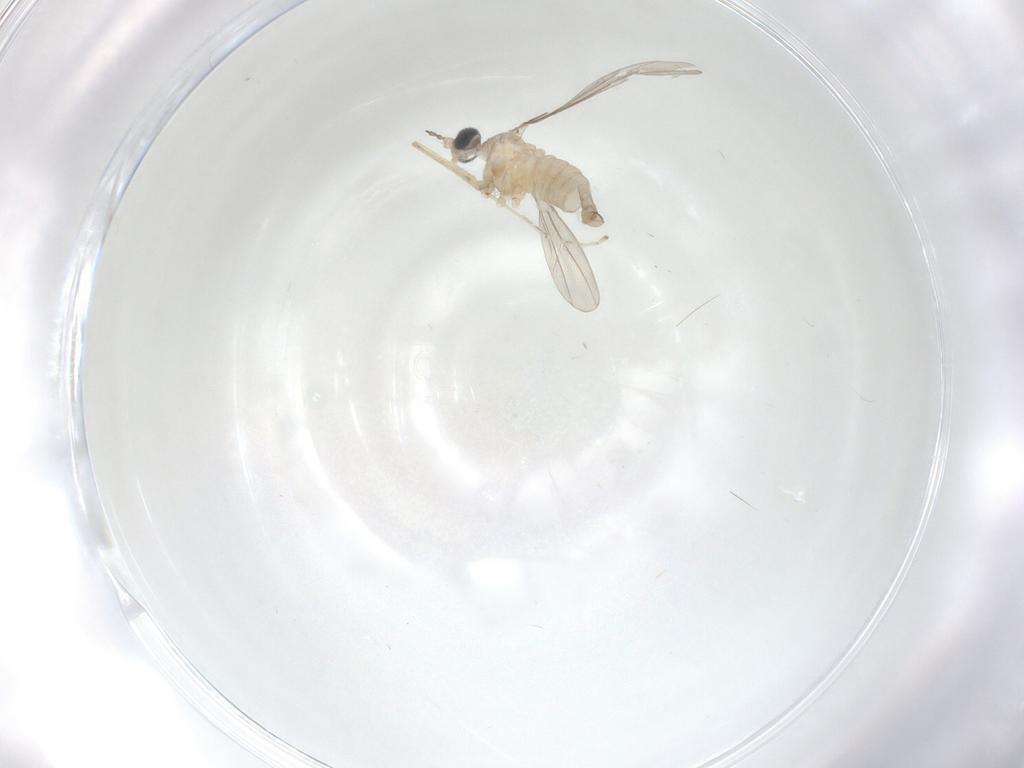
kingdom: Animalia
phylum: Arthropoda
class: Insecta
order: Diptera
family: Cecidomyiidae
